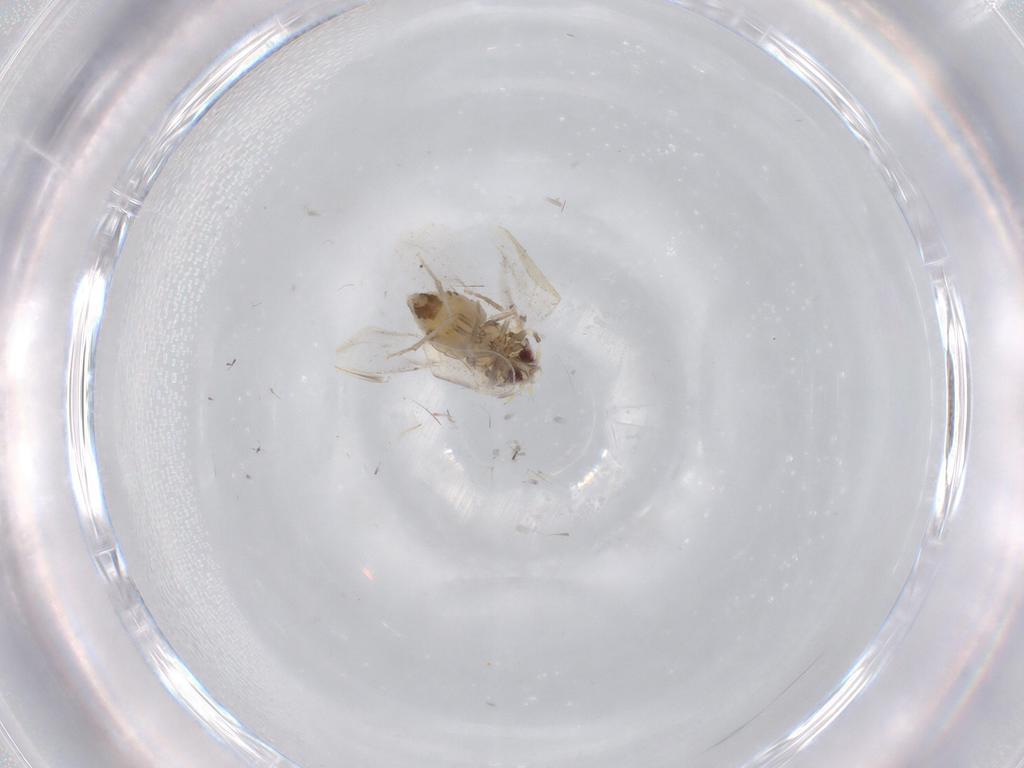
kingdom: Animalia
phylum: Arthropoda
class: Insecta
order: Hemiptera
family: Aleyrodidae
